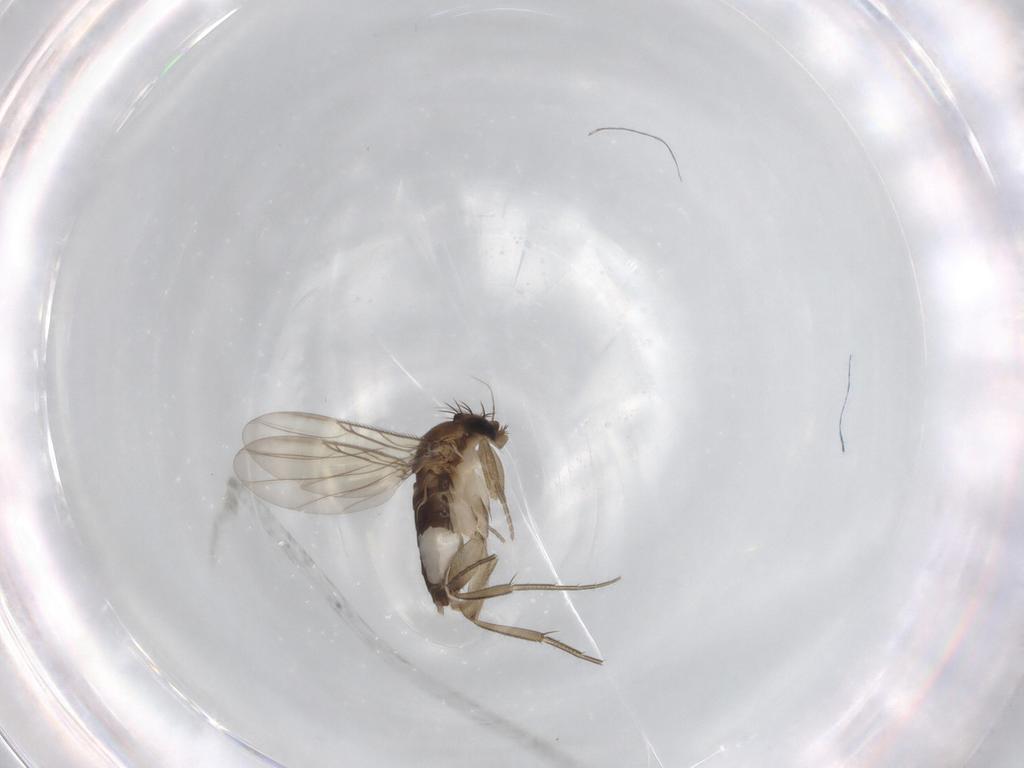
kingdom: Animalia
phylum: Arthropoda
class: Insecta
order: Diptera
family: Phoridae
